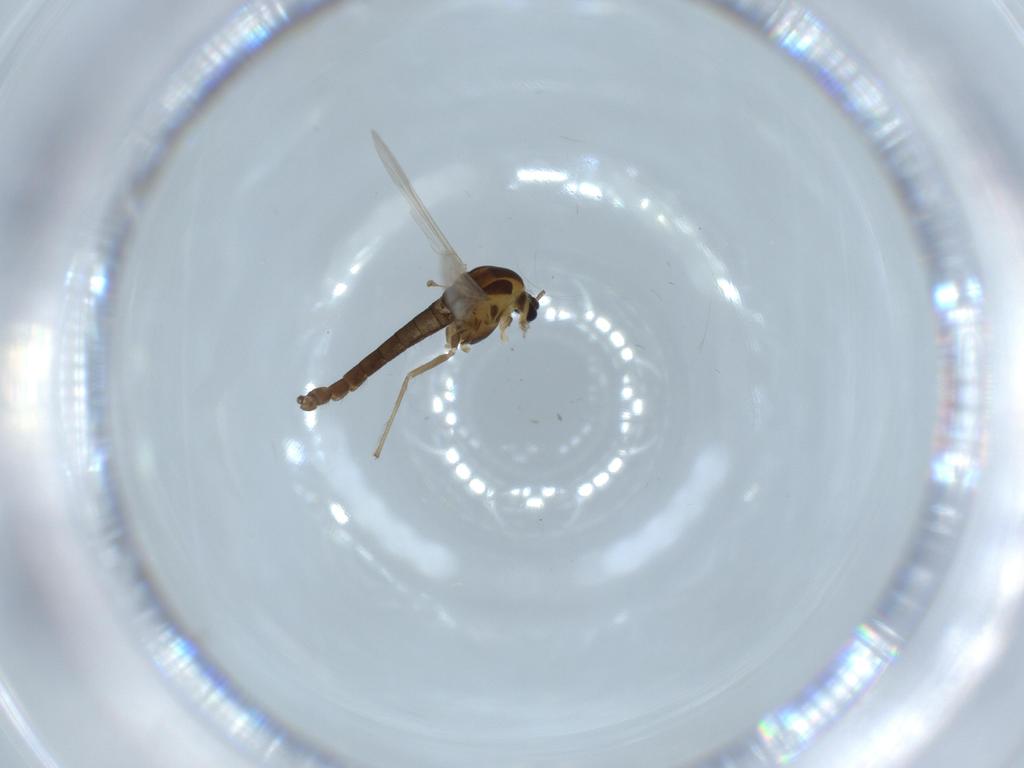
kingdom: Animalia
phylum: Arthropoda
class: Insecta
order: Diptera
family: Chironomidae
